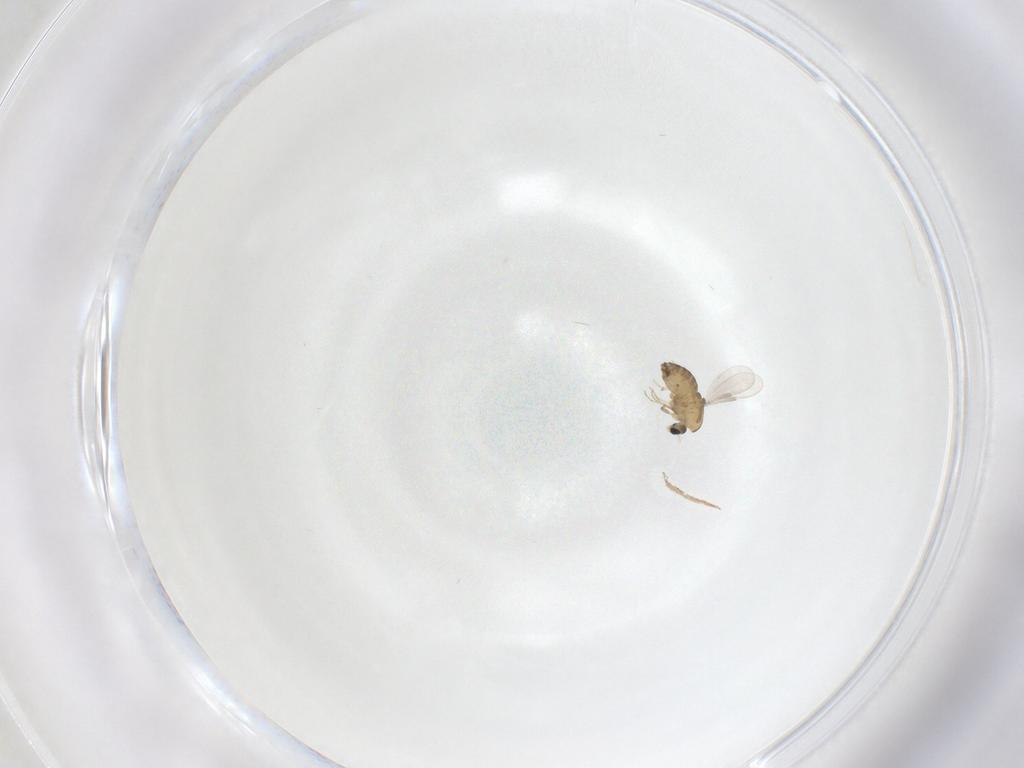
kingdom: Animalia
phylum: Arthropoda
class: Insecta
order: Diptera
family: Chironomidae
